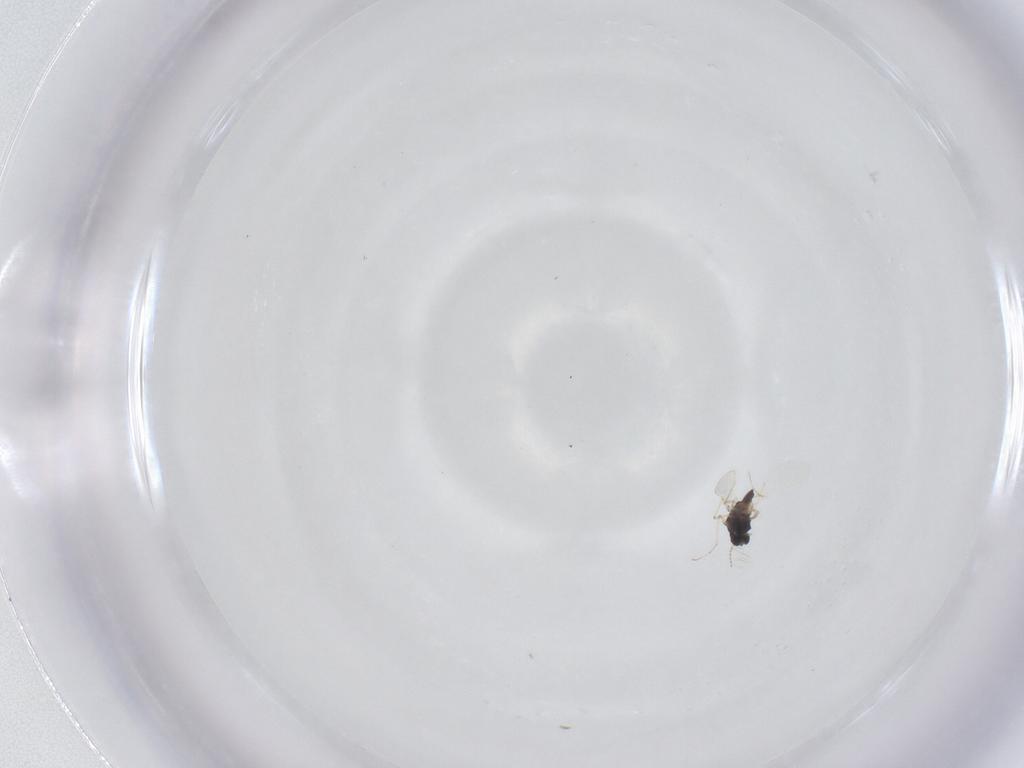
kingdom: Animalia
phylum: Arthropoda
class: Insecta
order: Diptera
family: Chironomidae
